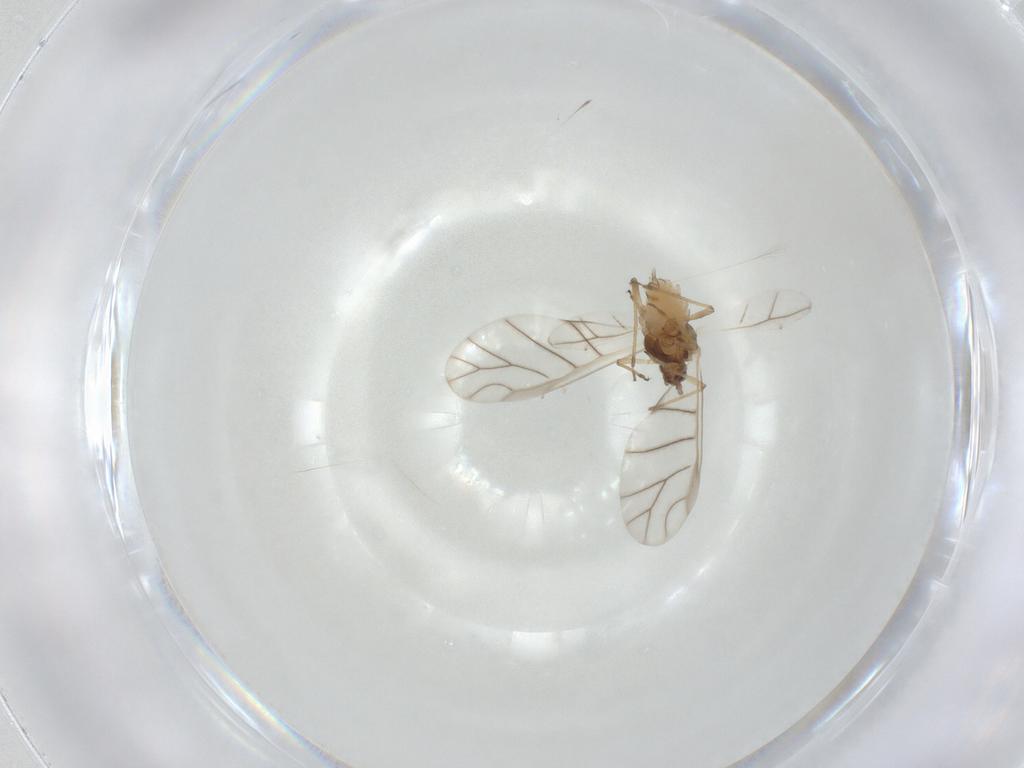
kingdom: Animalia
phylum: Arthropoda
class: Insecta
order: Hemiptera
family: Aphididae
